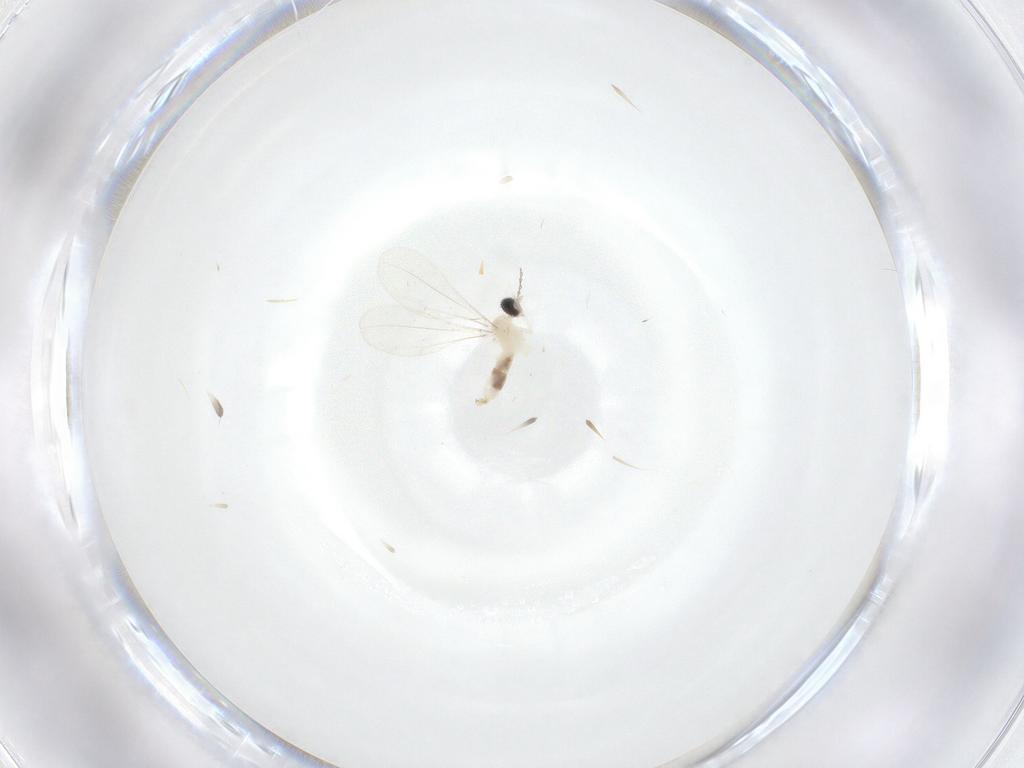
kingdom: Animalia
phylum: Arthropoda
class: Insecta
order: Diptera
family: Cecidomyiidae
